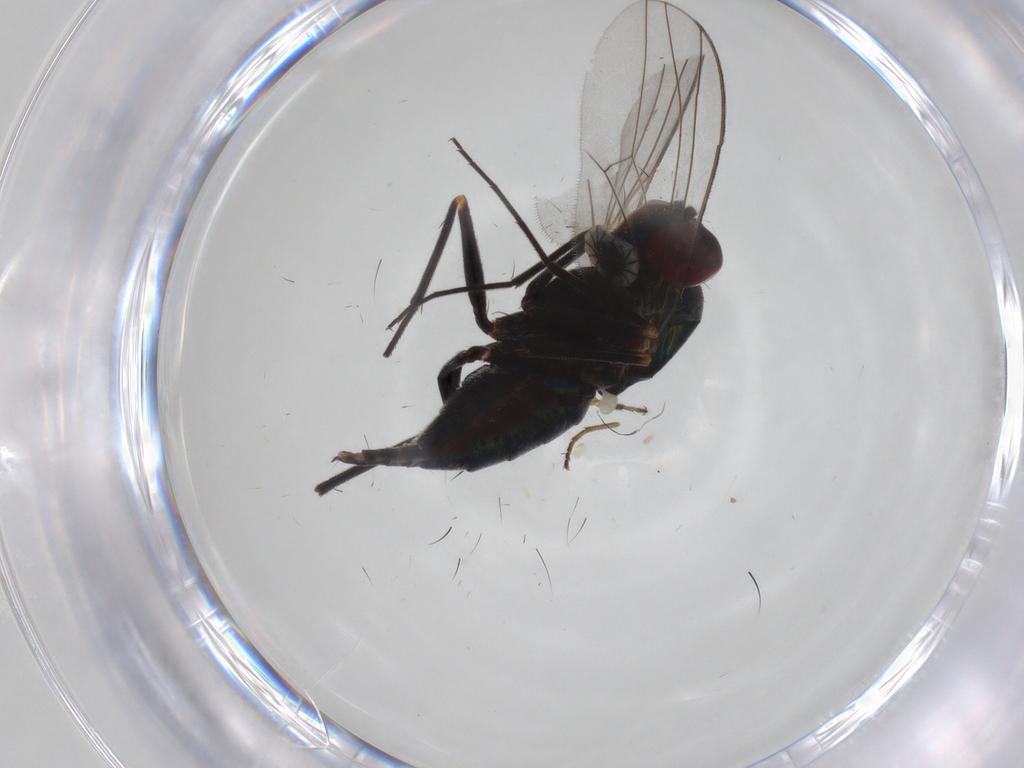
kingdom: Animalia
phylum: Arthropoda
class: Insecta
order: Diptera
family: Dolichopodidae
